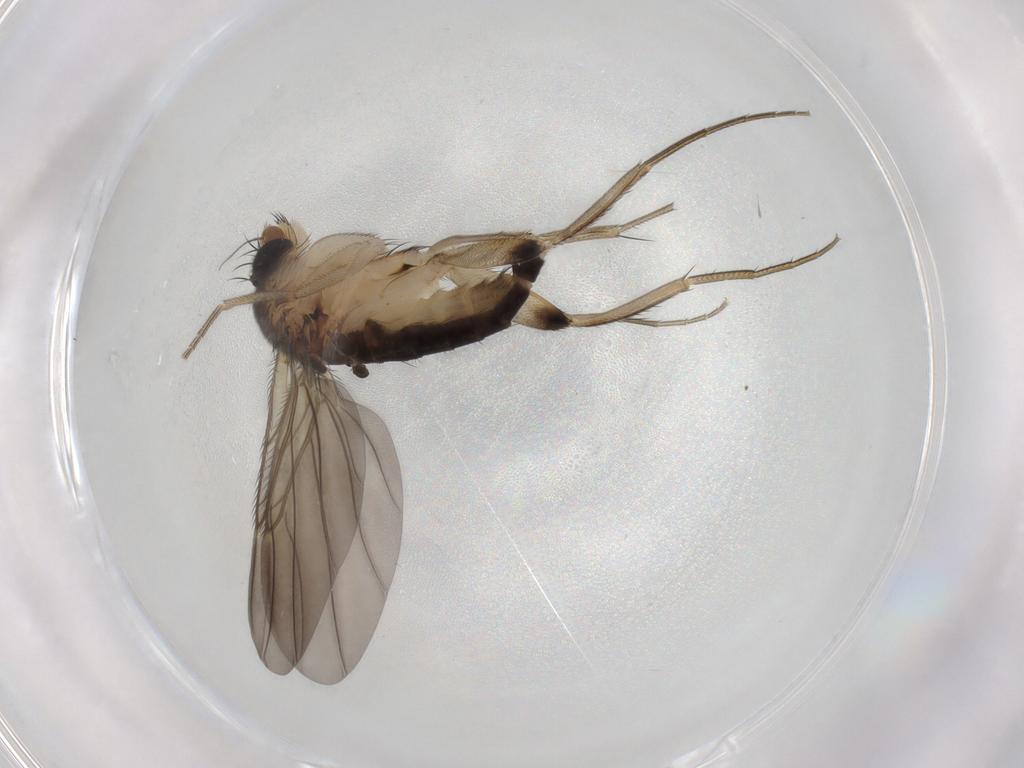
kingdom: Animalia
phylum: Arthropoda
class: Insecta
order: Diptera
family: Phoridae
